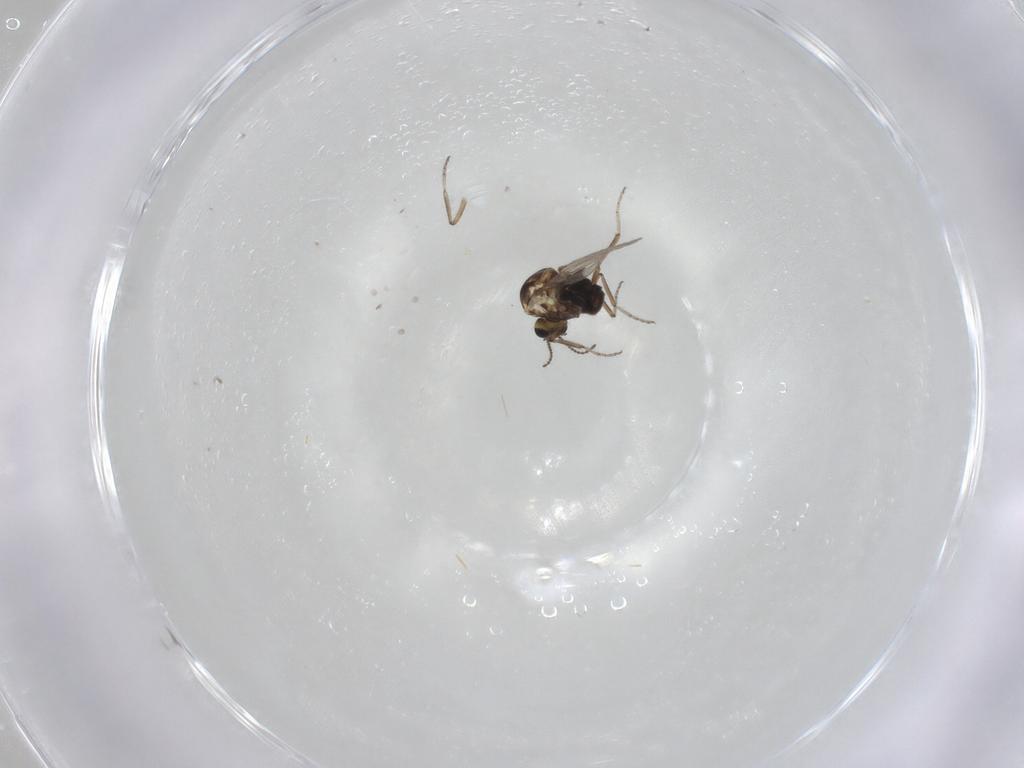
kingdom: Animalia
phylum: Arthropoda
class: Insecta
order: Diptera
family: Ceratopogonidae
